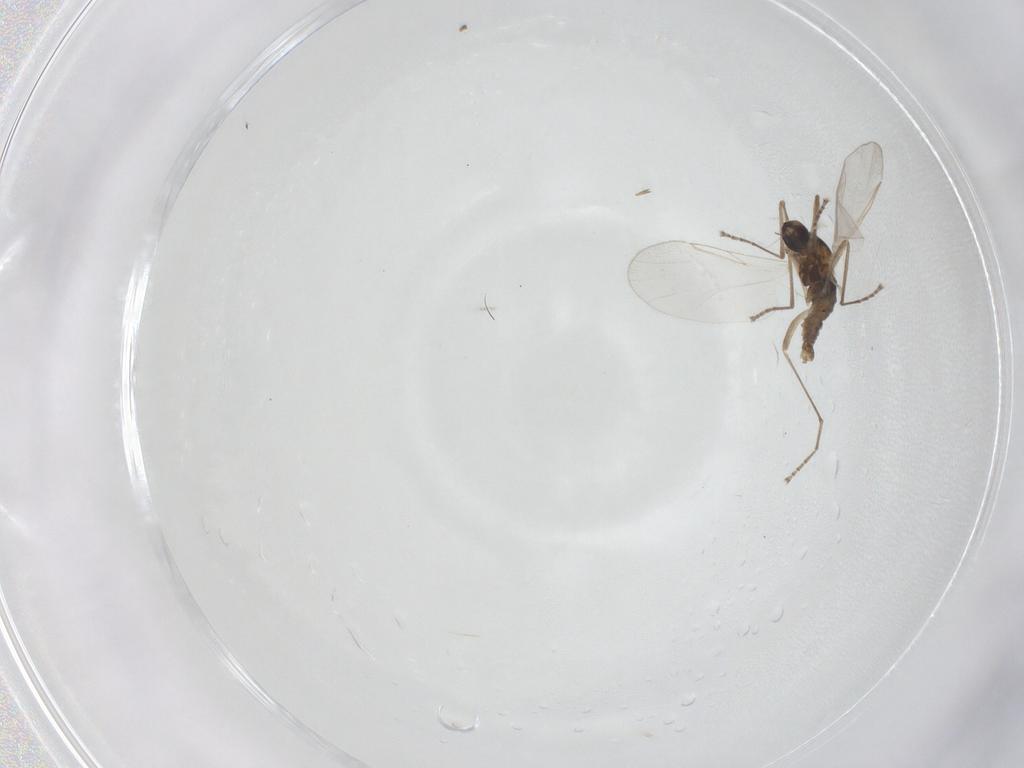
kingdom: Animalia
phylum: Arthropoda
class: Insecta
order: Diptera
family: Cecidomyiidae
